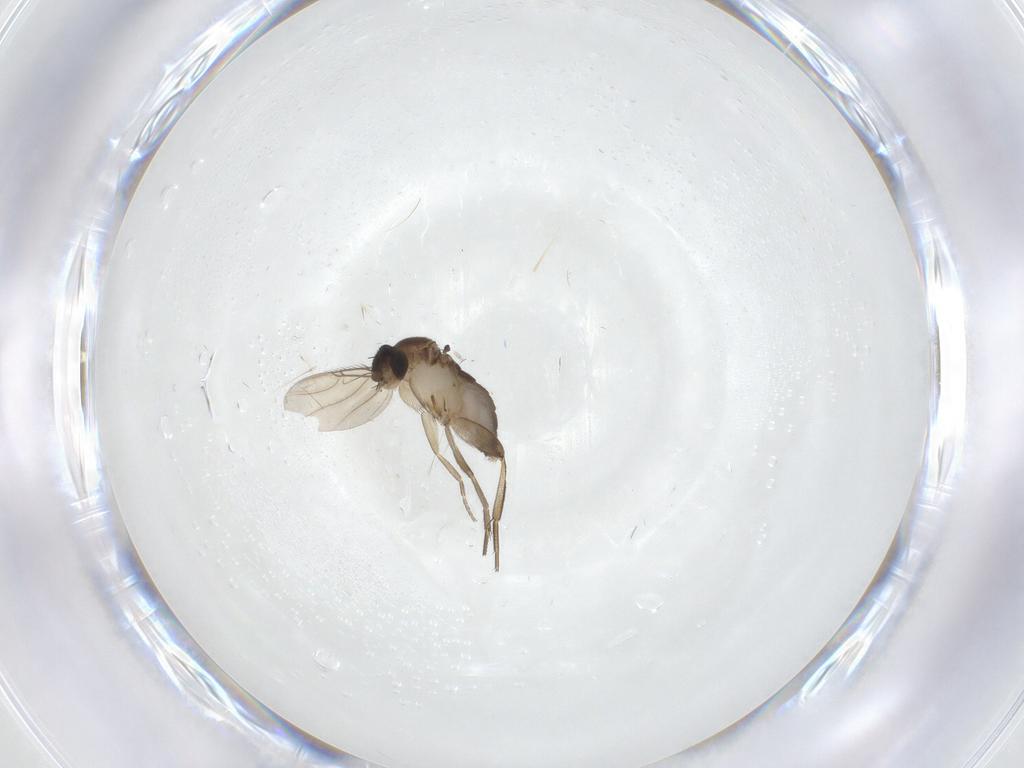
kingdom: Animalia
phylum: Arthropoda
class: Insecta
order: Diptera
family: Phoridae
